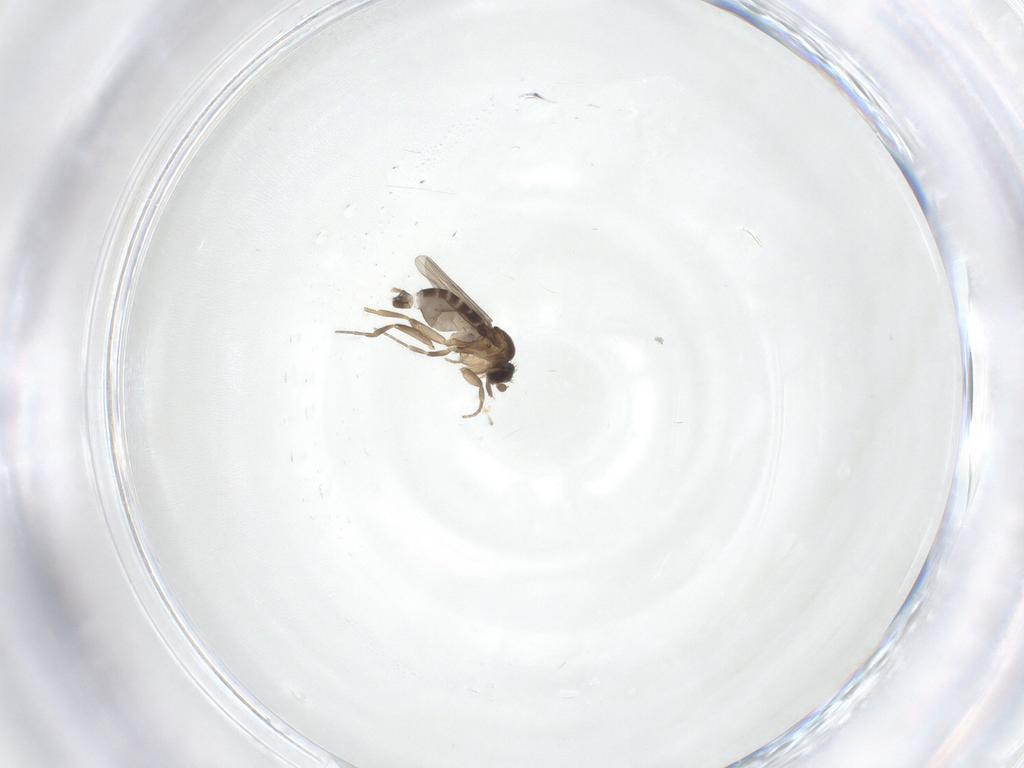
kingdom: Animalia
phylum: Arthropoda
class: Insecta
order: Diptera
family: Phoridae
